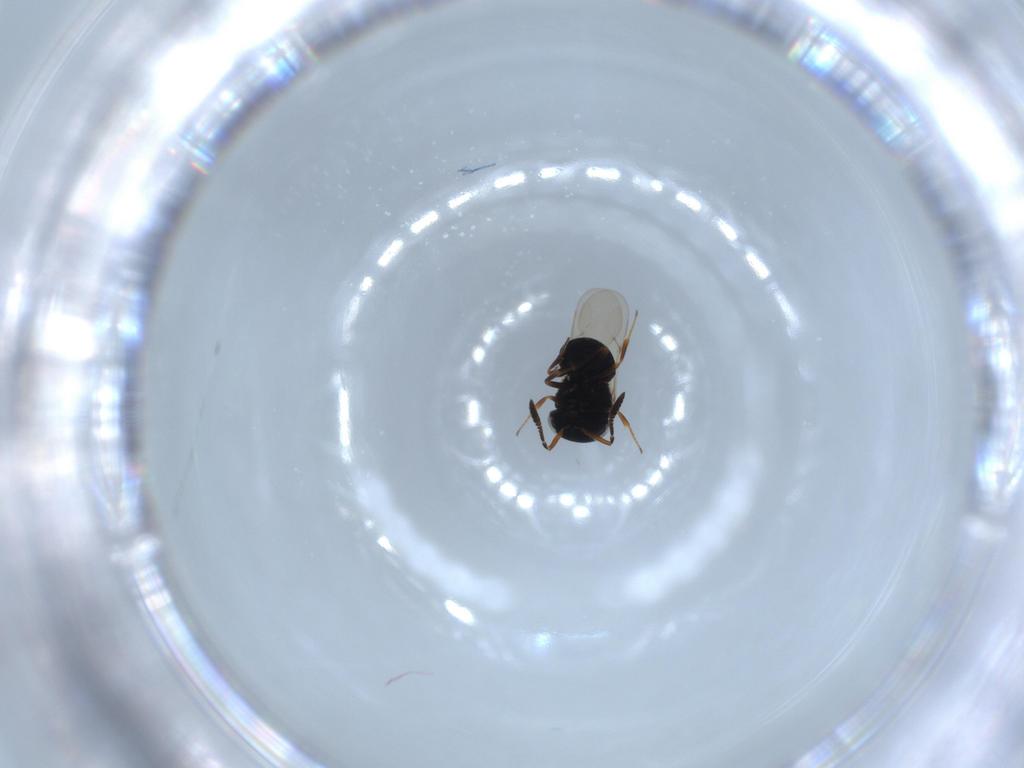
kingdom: Animalia
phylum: Arthropoda
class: Insecta
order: Hymenoptera
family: Scelionidae
